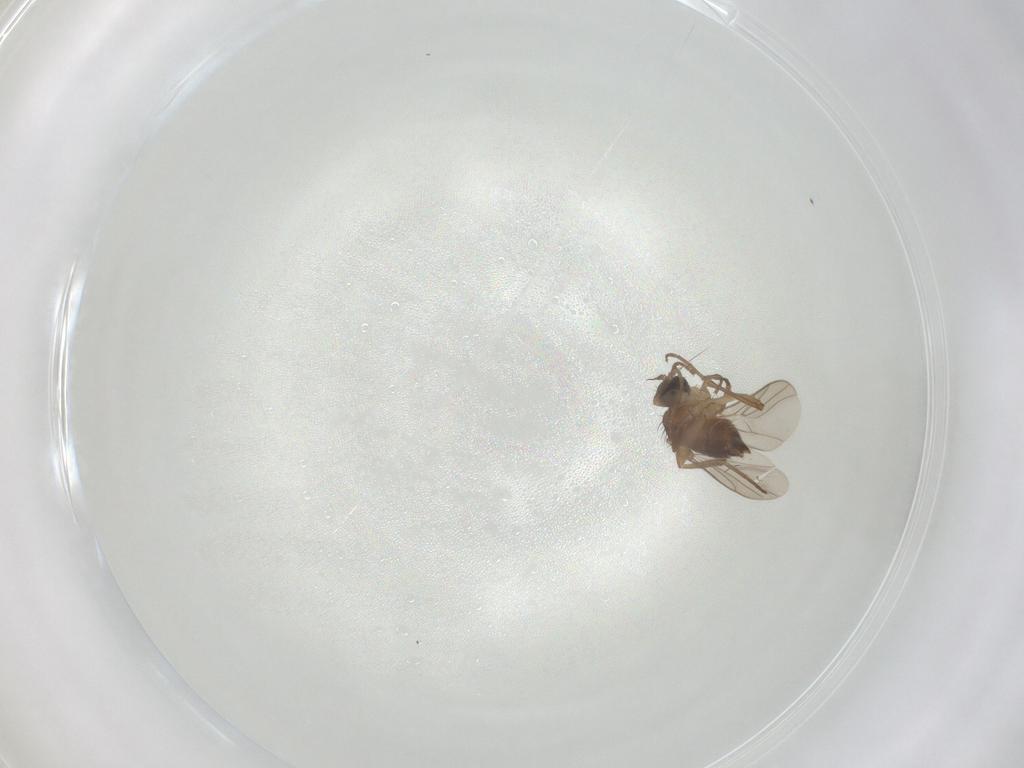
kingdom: Animalia
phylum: Arthropoda
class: Insecta
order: Diptera
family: Hybotidae
